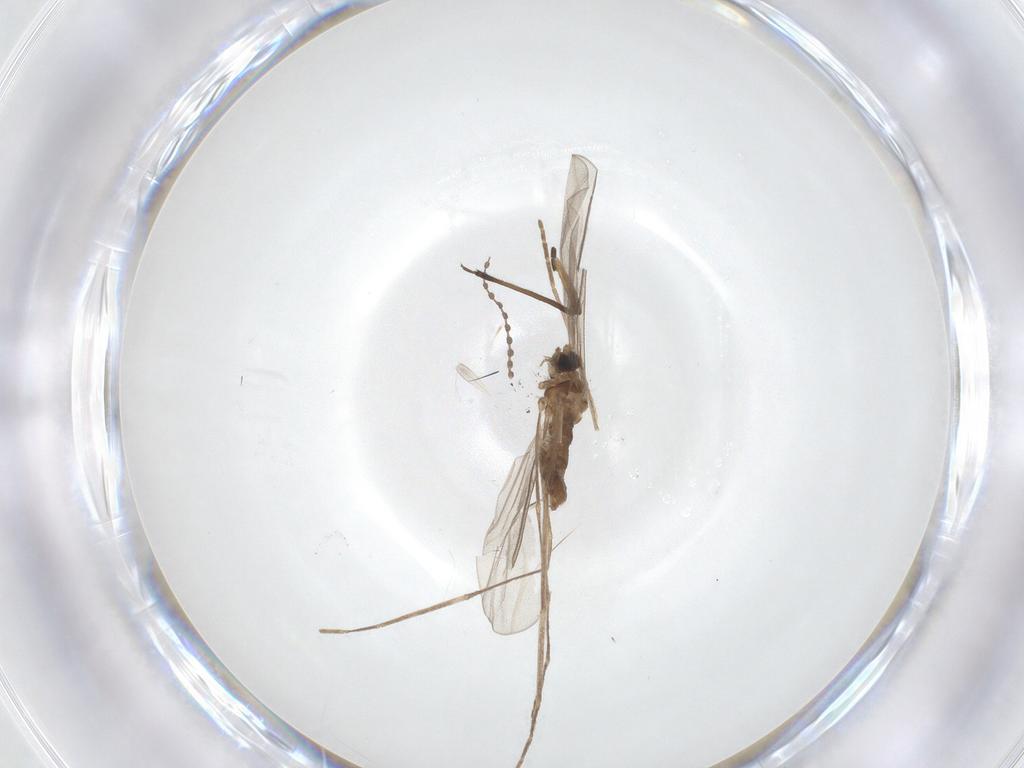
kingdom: Animalia
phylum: Arthropoda
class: Insecta
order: Diptera
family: Cecidomyiidae
